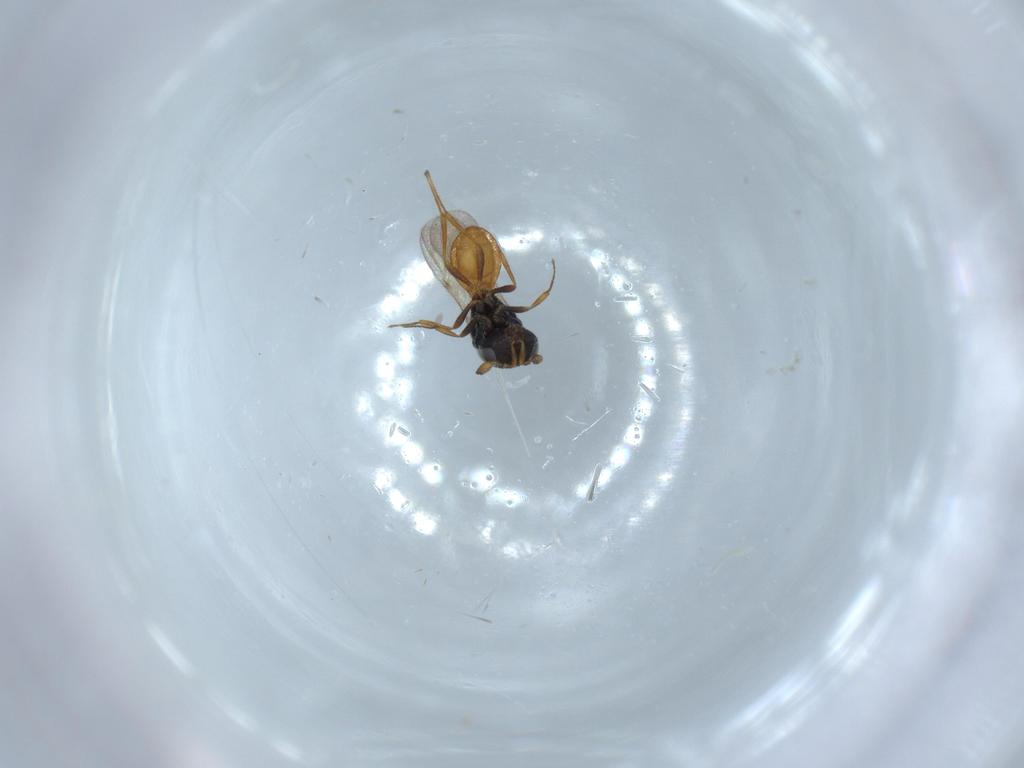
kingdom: Animalia
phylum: Arthropoda
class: Insecta
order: Hymenoptera
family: Scelionidae
